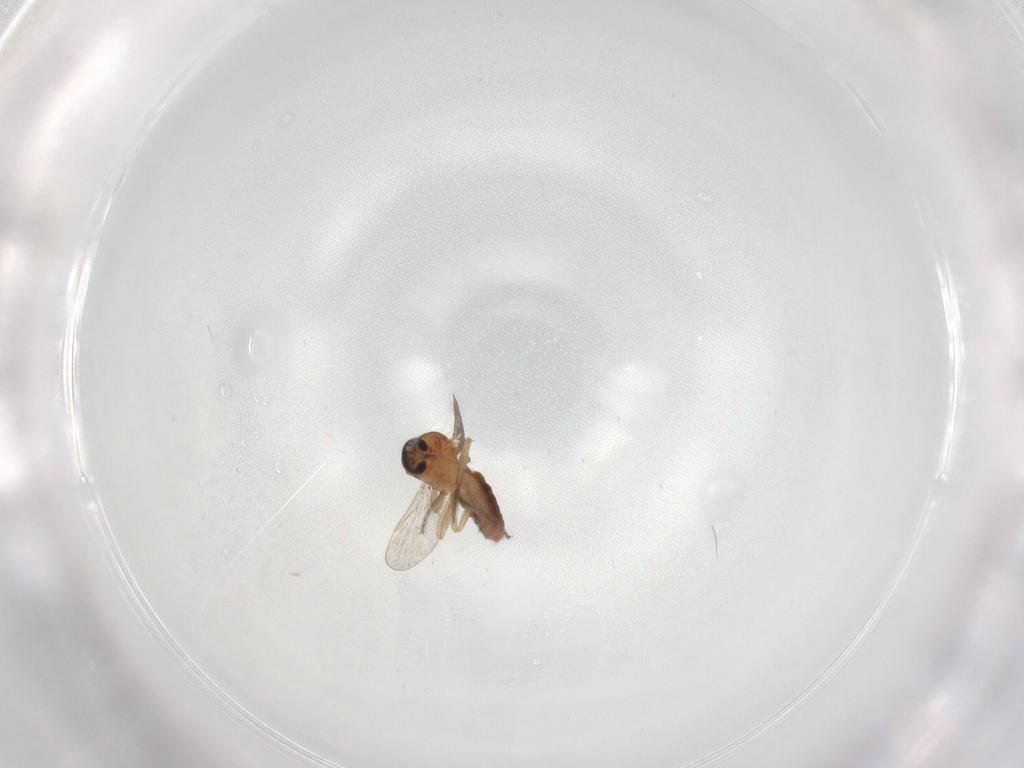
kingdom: Animalia
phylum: Arthropoda
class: Insecta
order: Diptera
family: Ceratopogonidae
